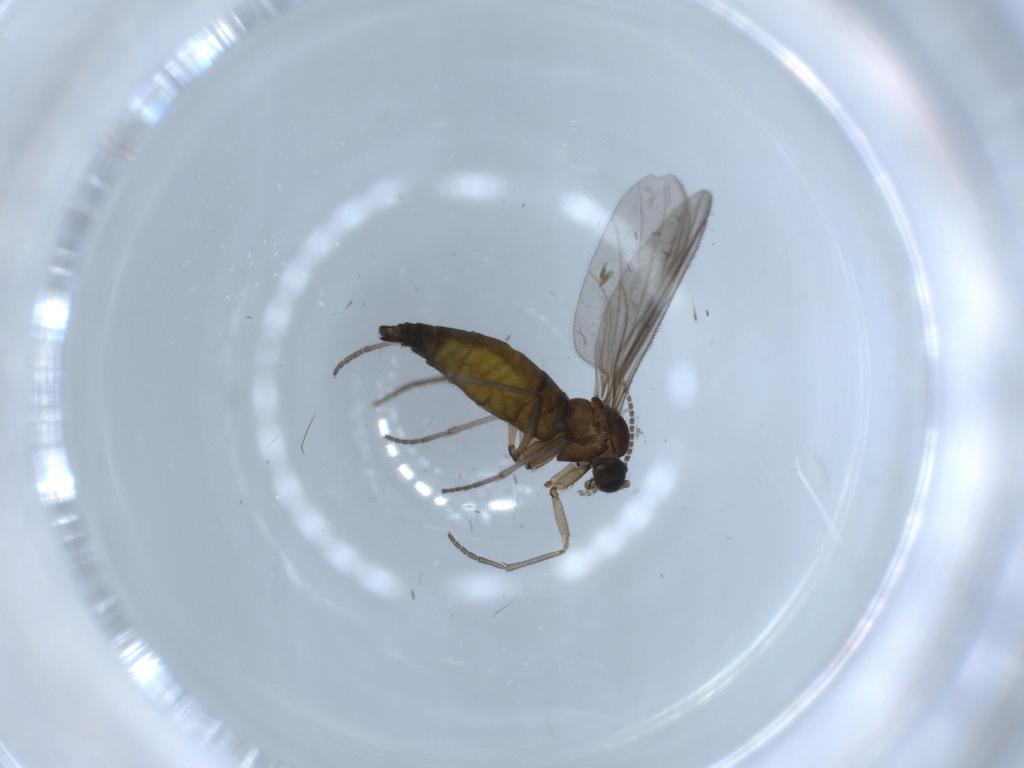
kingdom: Animalia
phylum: Arthropoda
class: Insecta
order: Diptera
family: Sciaridae
